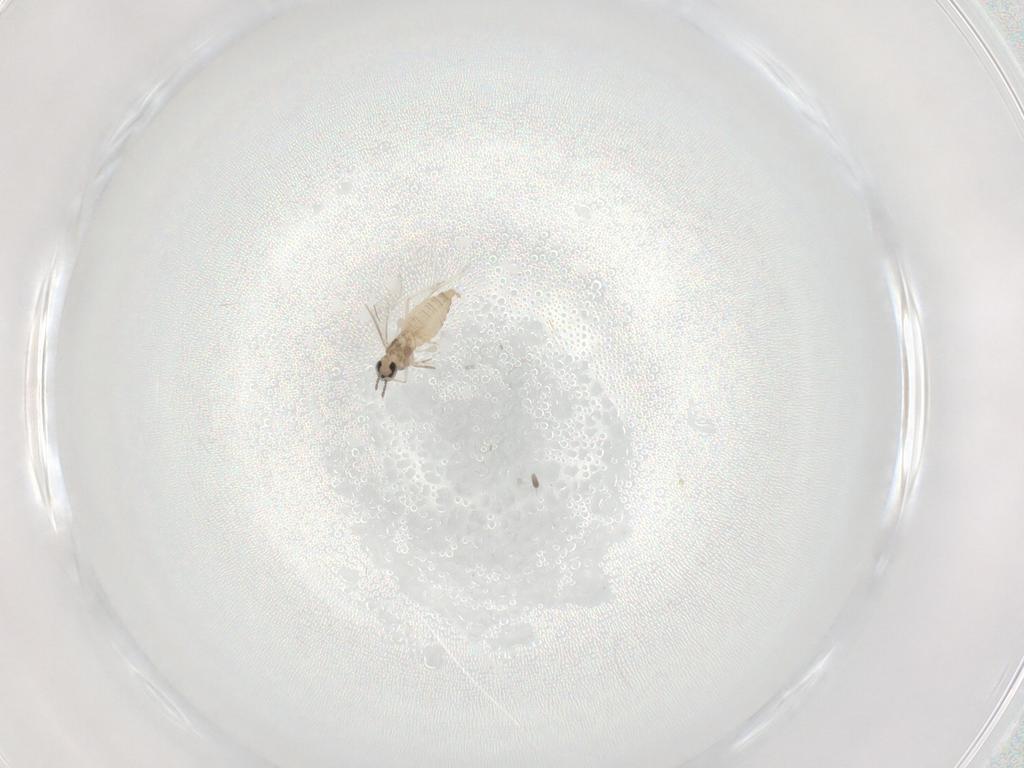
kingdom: Animalia
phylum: Arthropoda
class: Insecta
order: Diptera
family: Cecidomyiidae
